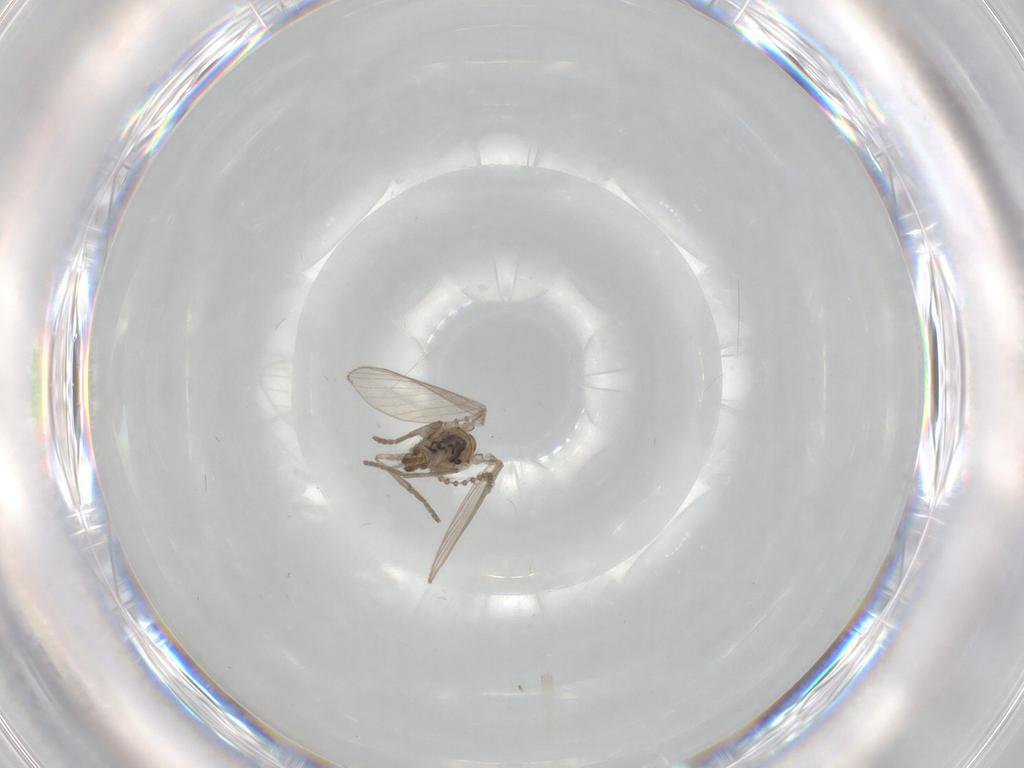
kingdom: Animalia
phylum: Arthropoda
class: Insecta
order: Diptera
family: Psychodidae
